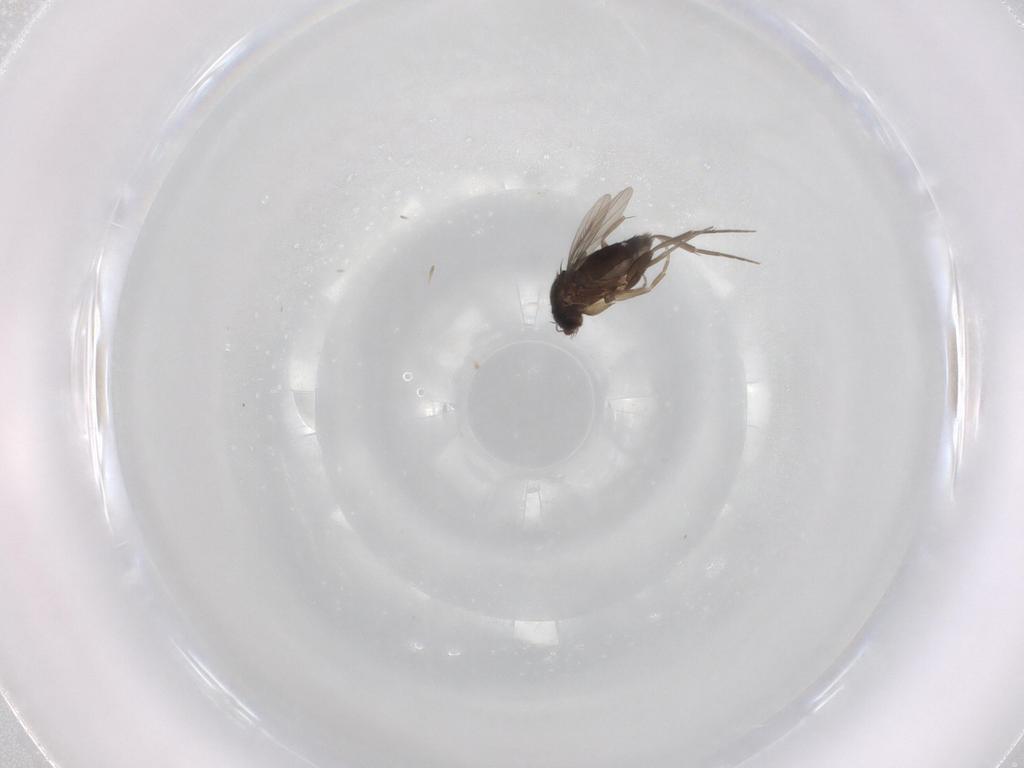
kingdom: Animalia
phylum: Arthropoda
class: Insecta
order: Diptera
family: Phoridae
